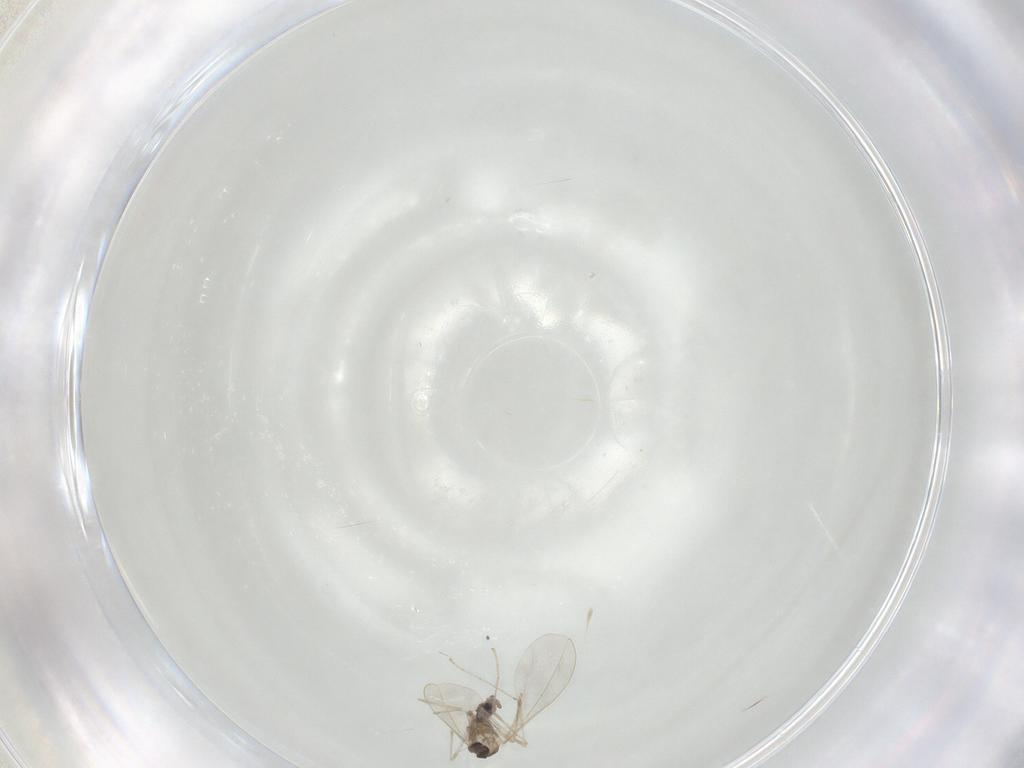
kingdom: Animalia
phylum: Arthropoda
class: Insecta
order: Diptera
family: Cecidomyiidae
